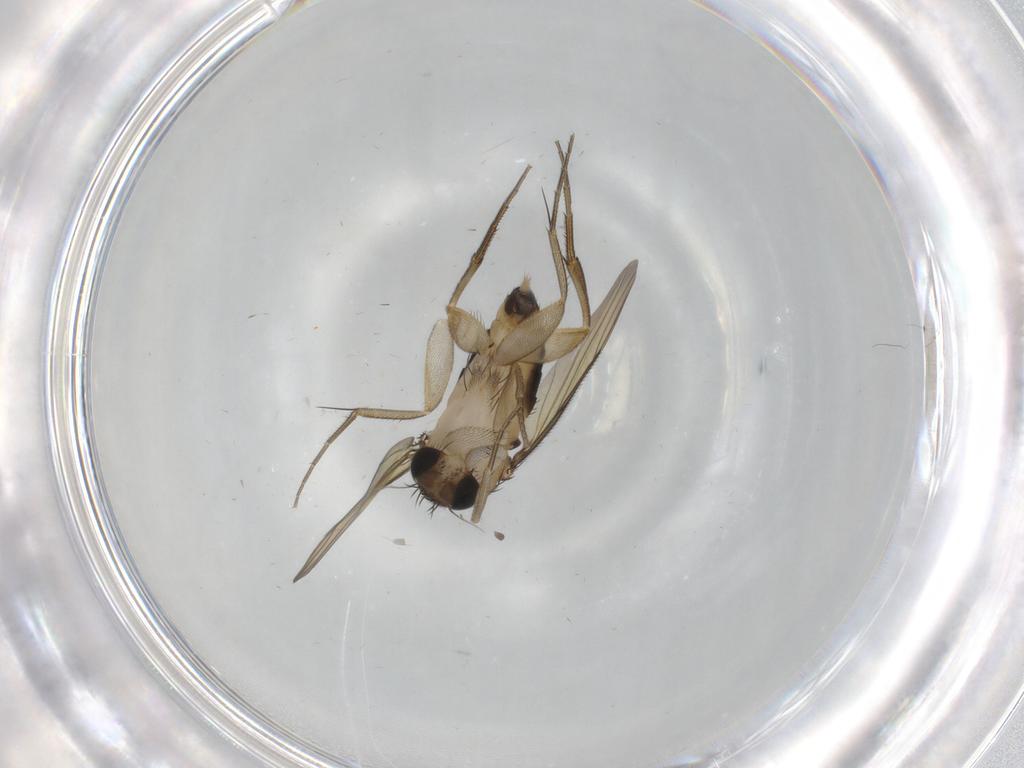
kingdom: Animalia
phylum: Arthropoda
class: Insecta
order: Diptera
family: Phoridae
